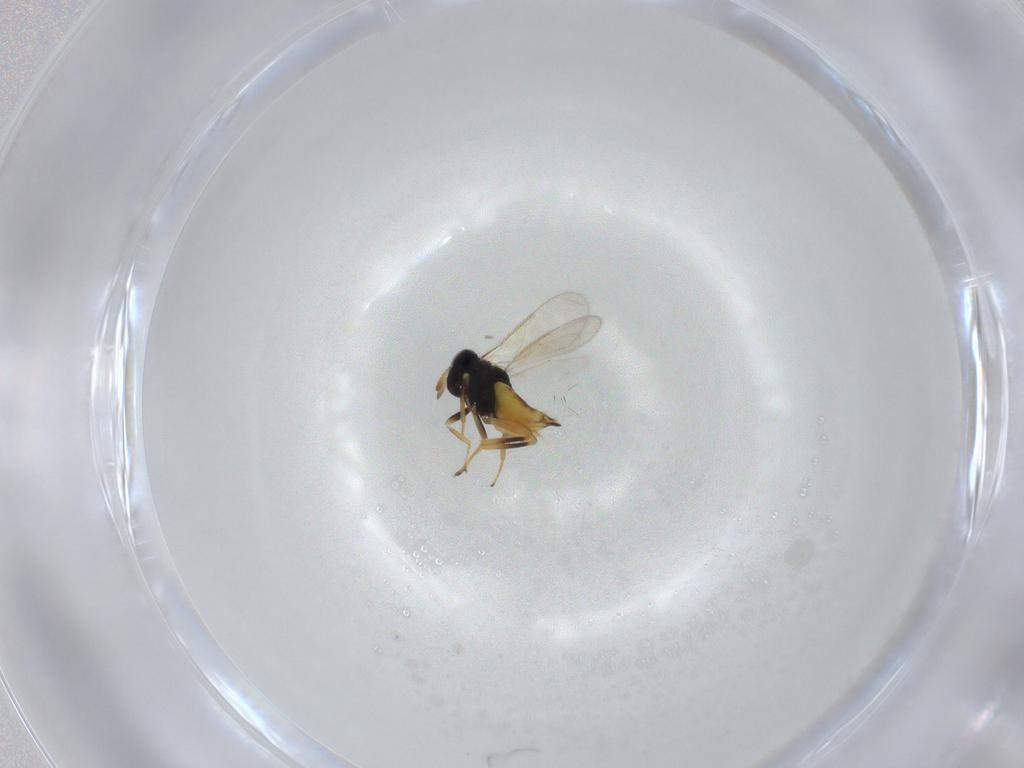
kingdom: Animalia
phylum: Arthropoda
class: Insecta
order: Hymenoptera
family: Aphelinidae
